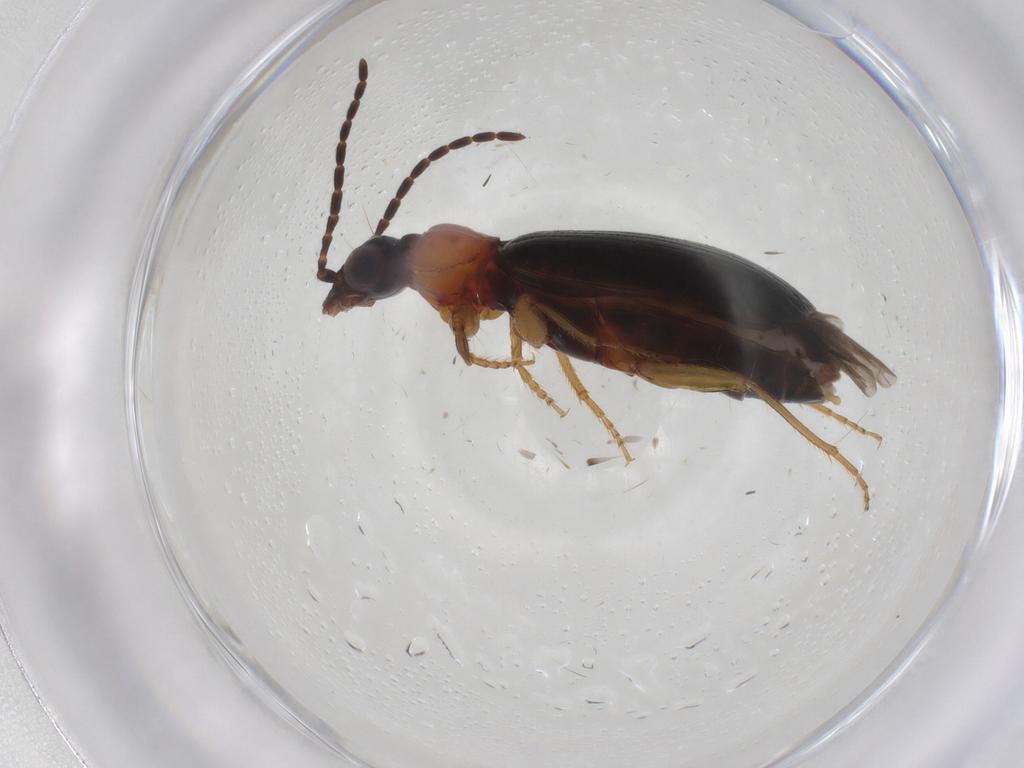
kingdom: Animalia
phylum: Arthropoda
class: Insecta
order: Coleoptera
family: Carabidae
